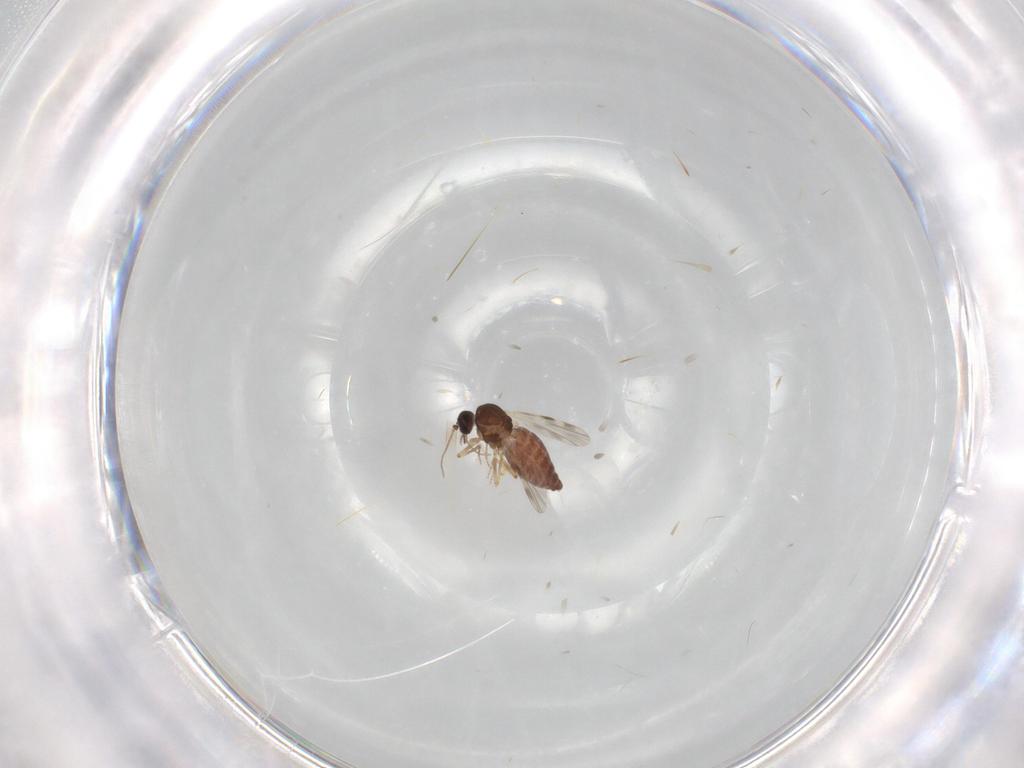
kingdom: Animalia
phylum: Arthropoda
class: Insecta
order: Diptera
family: Ceratopogonidae
